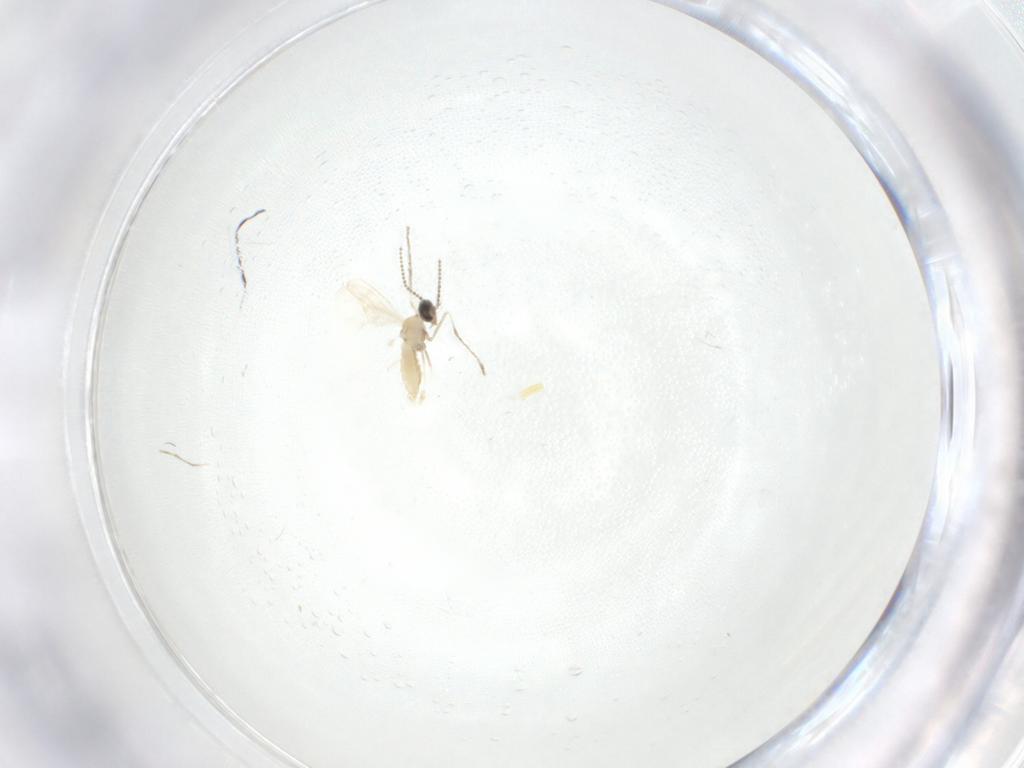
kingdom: Animalia
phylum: Arthropoda
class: Insecta
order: Diptera
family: Cecidomyiidae
